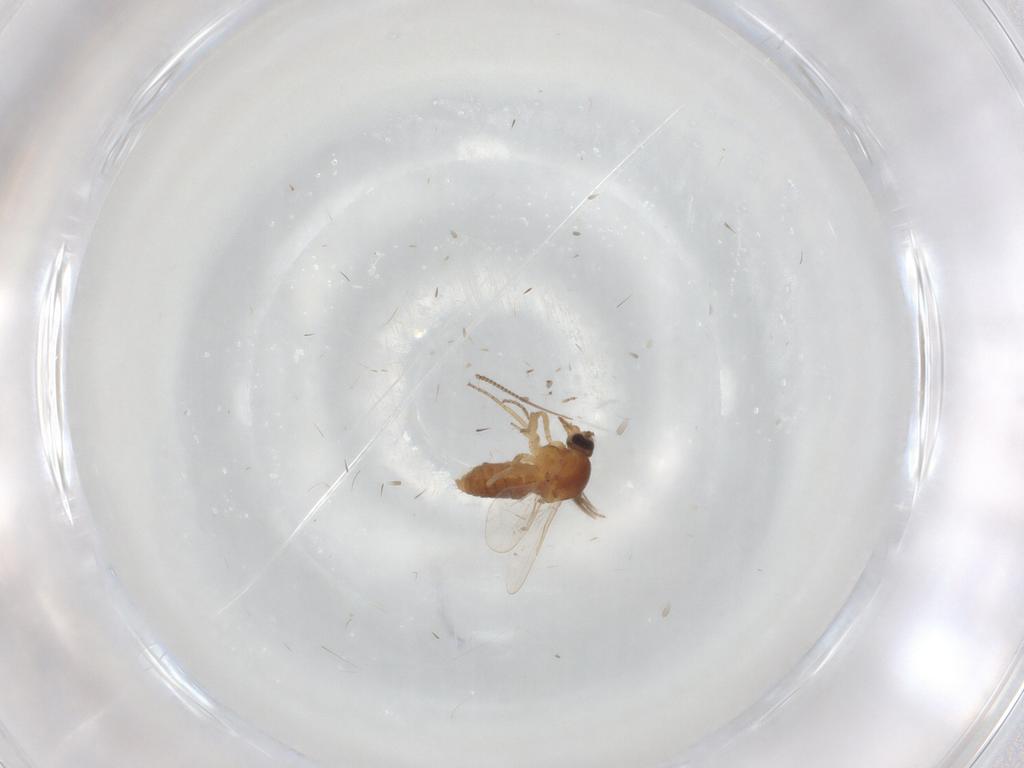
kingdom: Animalia
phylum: Arthropoda
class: Insecta
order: Diptera
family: Ceratopogonidae
